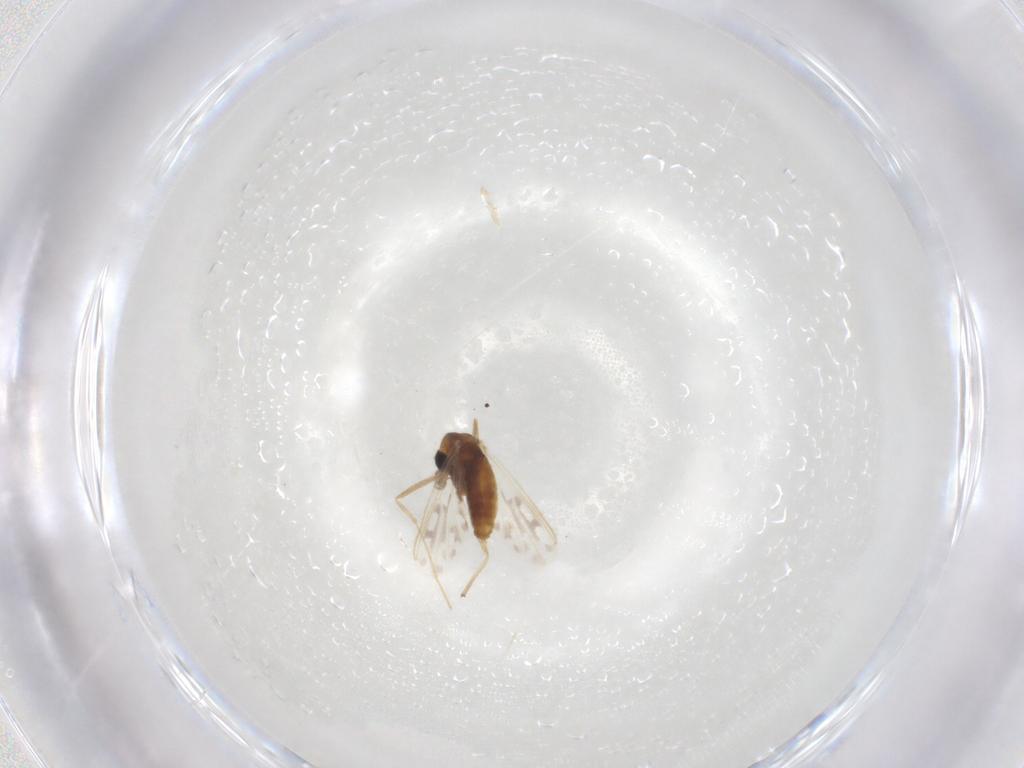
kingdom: Animalia
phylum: Arthropoda
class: Insecta
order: Diptera
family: Chironomidae
